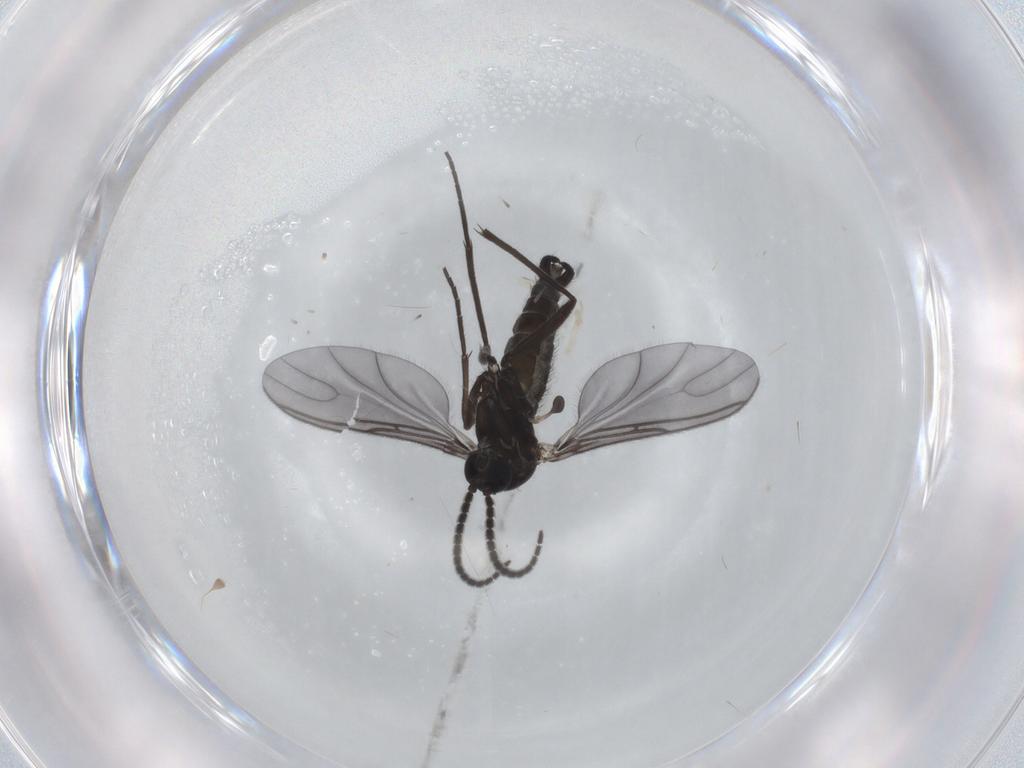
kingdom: Animalia
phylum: Arthropoda
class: Insecta
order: Diptera
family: Sciaridae
